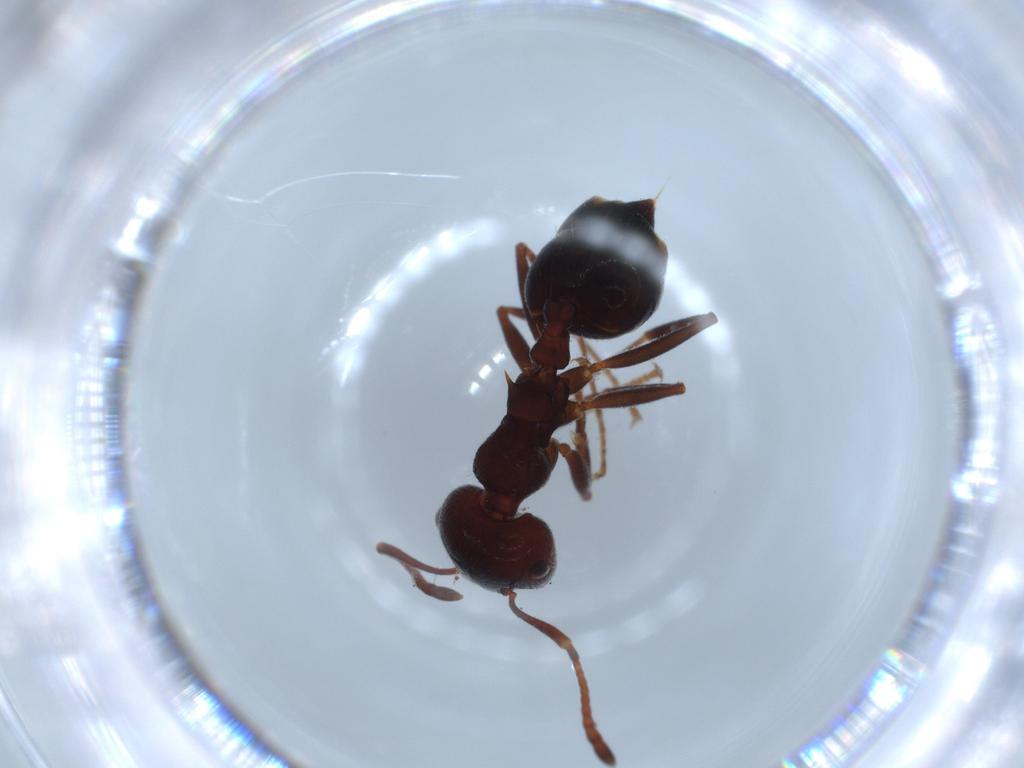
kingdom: Animalia
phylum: Arthropoda
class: Insecta
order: Hymenoptera
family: Formicidae
